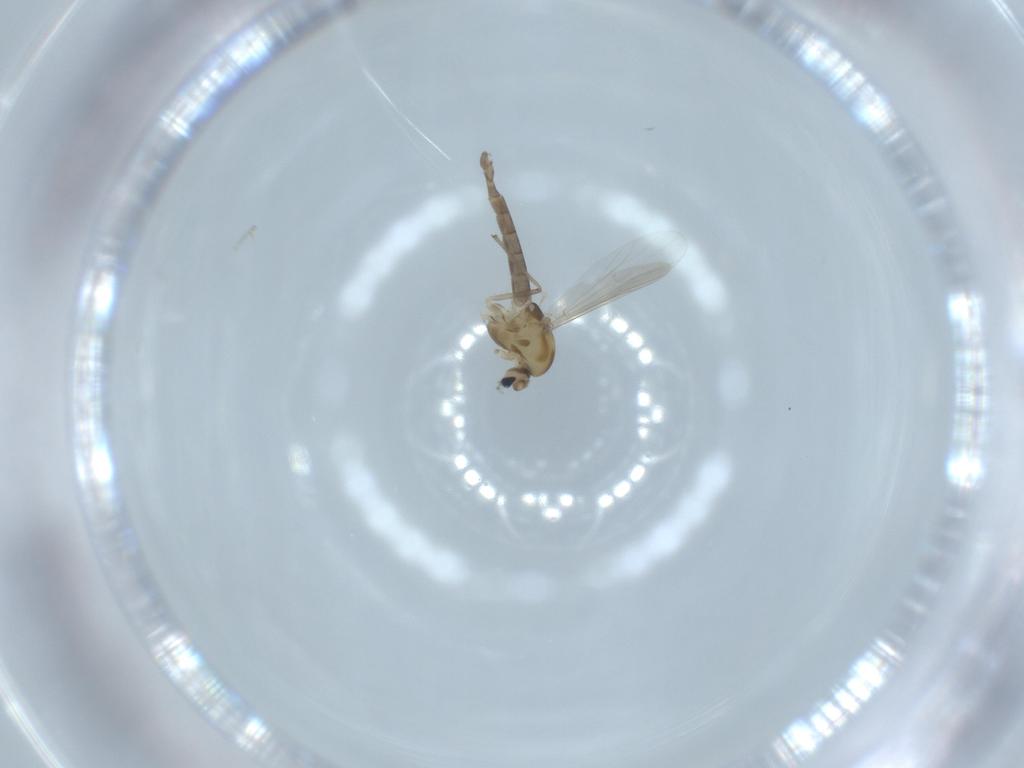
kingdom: Animalia
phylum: Arthropoda
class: Insecta
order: Diptera
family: Chironomidae
